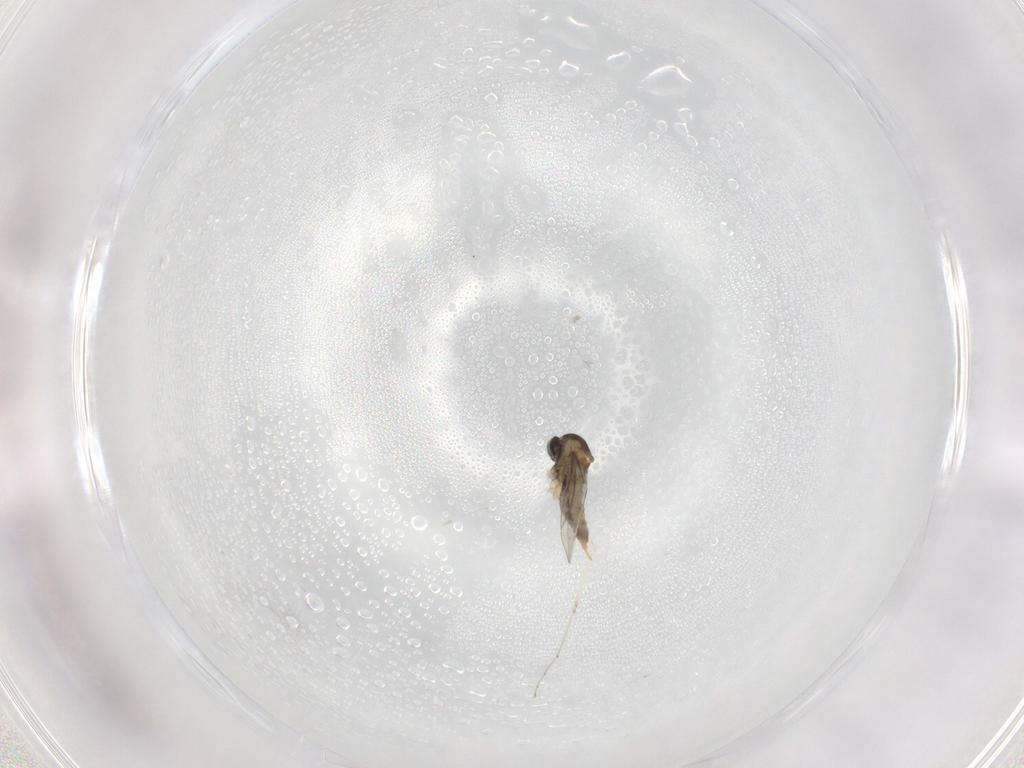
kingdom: Animalia
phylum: Arthropoda
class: Insecta
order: Diptera
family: Cecidomyiidae
